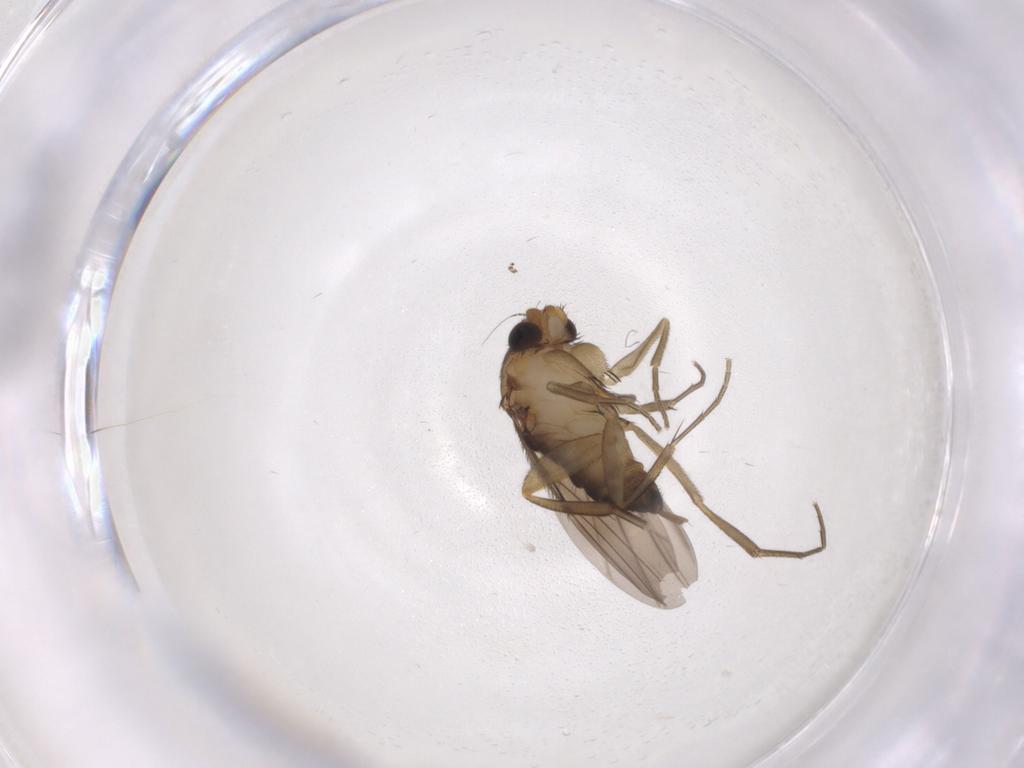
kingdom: Animalia
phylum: Arthropoda
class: Insecta
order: Diptera
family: Phoridae
